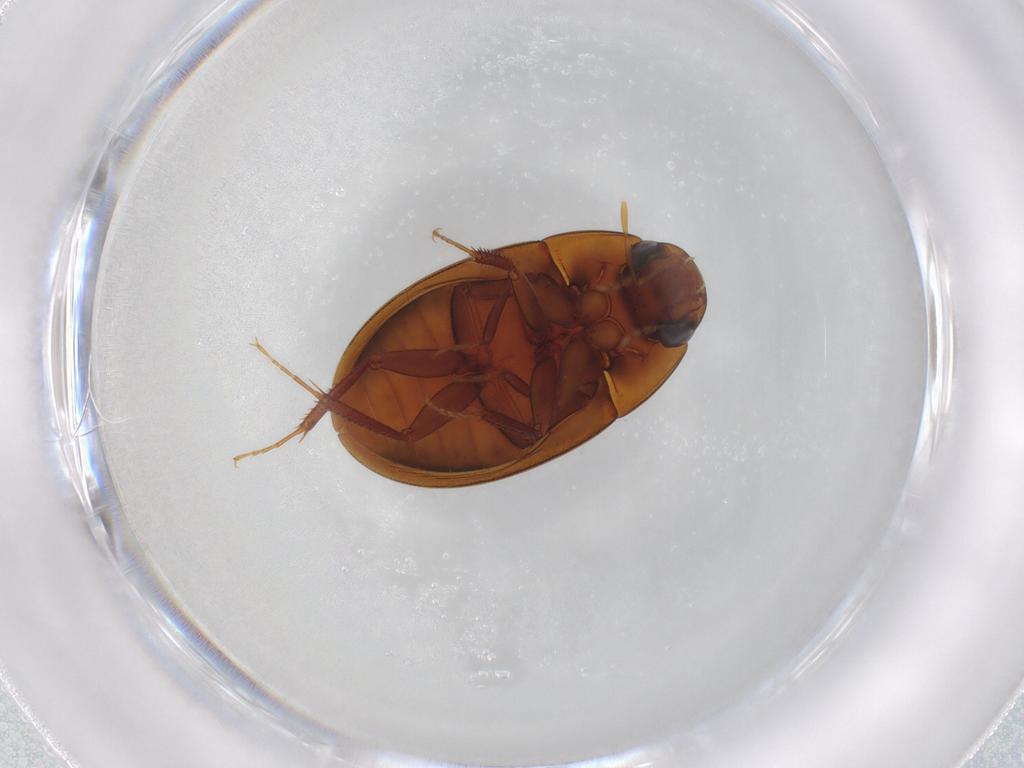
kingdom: Animalia
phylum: Arthropoda
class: Insecta
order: Coleoptera
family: Hydrophilidae
